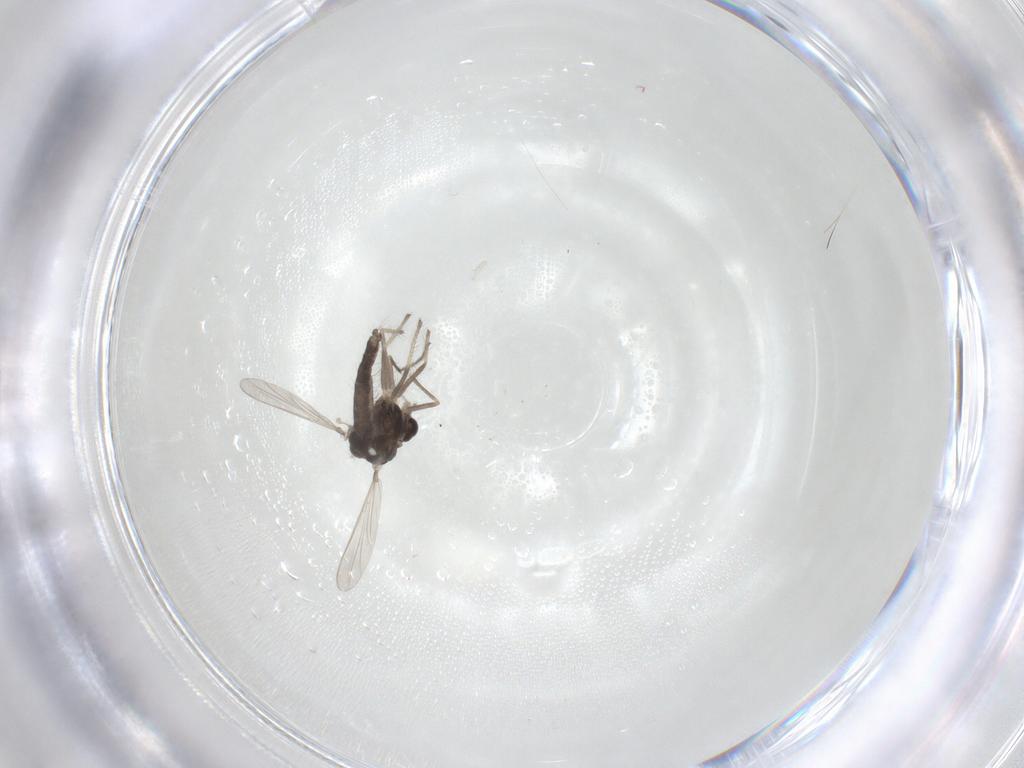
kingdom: Animalia
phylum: Arthropoda
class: Insecta
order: Diptera
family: Chironomidae
